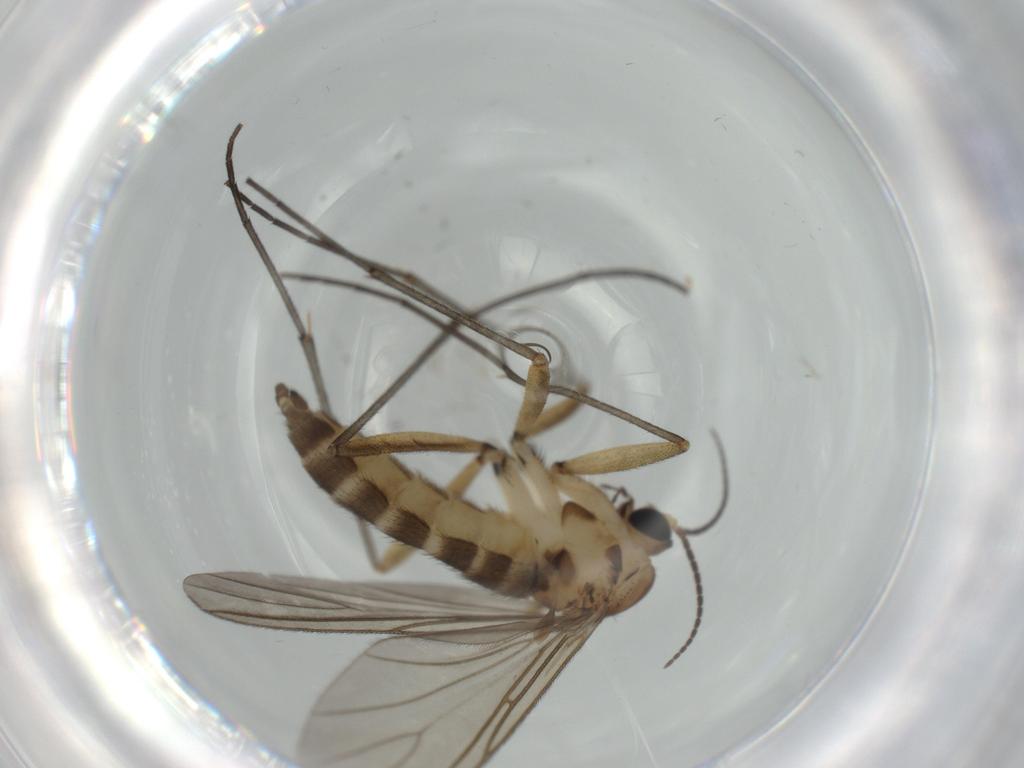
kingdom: Animalia
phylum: Arthropoda
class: Insecta
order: Diptera
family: Sciaridae
